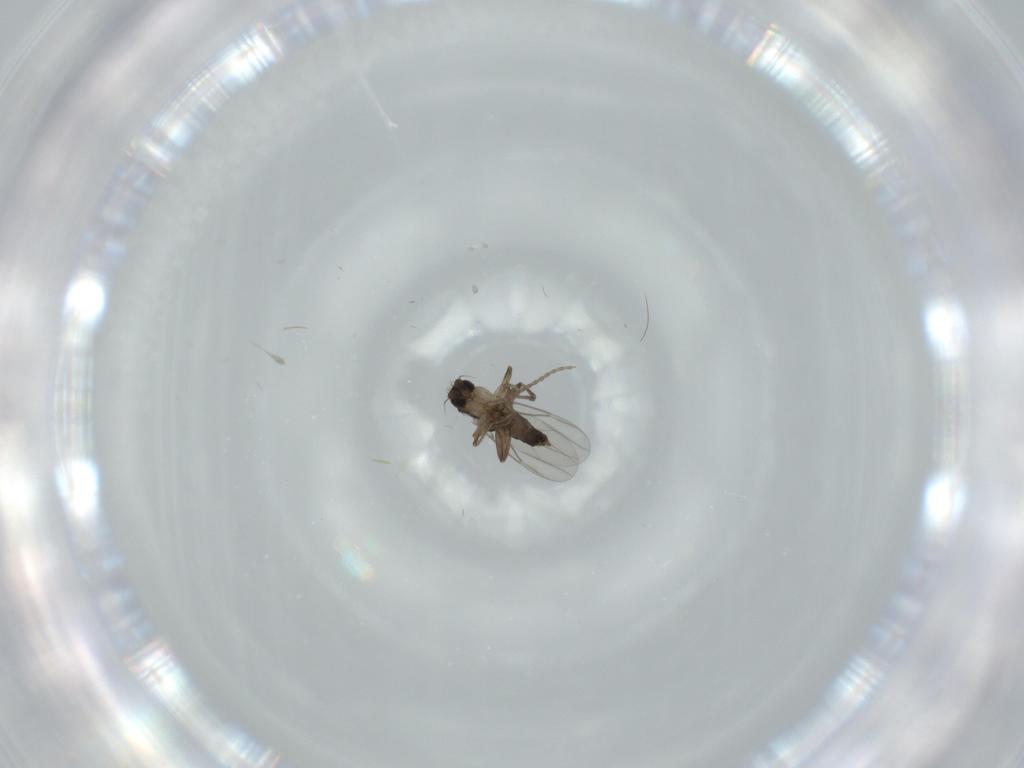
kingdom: Animalia
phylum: Arthropoda
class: Insecta
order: Diptera
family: Phoridae
